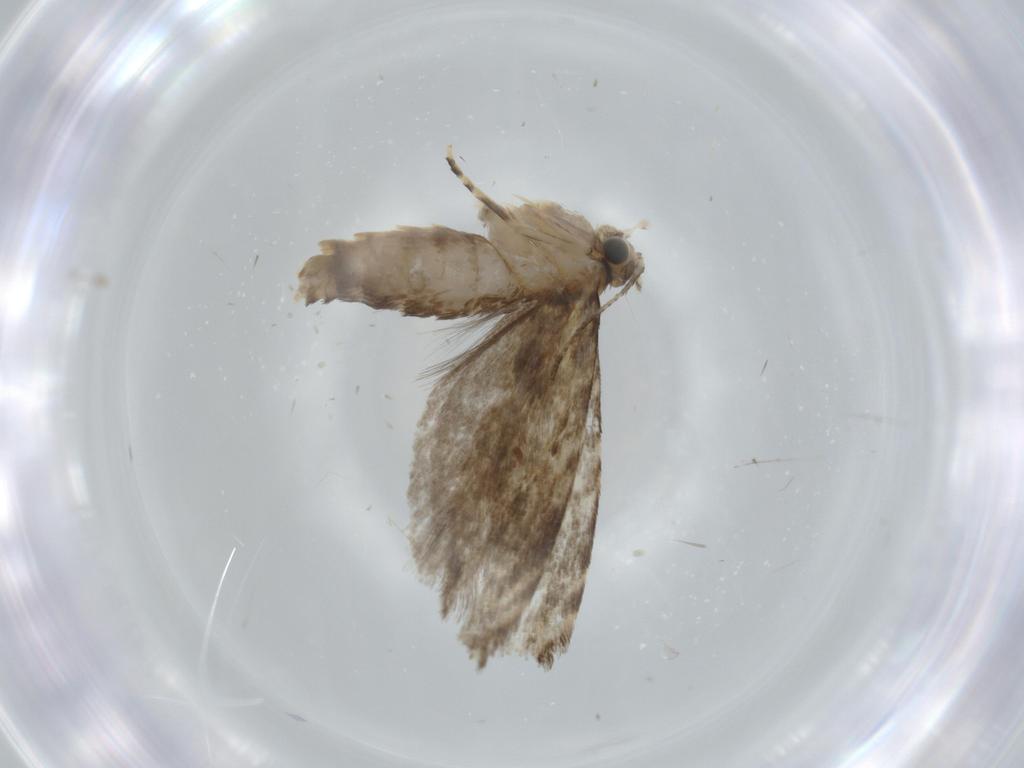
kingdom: Animalia
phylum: Arthropoda
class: Insecta
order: Lepidoptera
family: Tineidae
